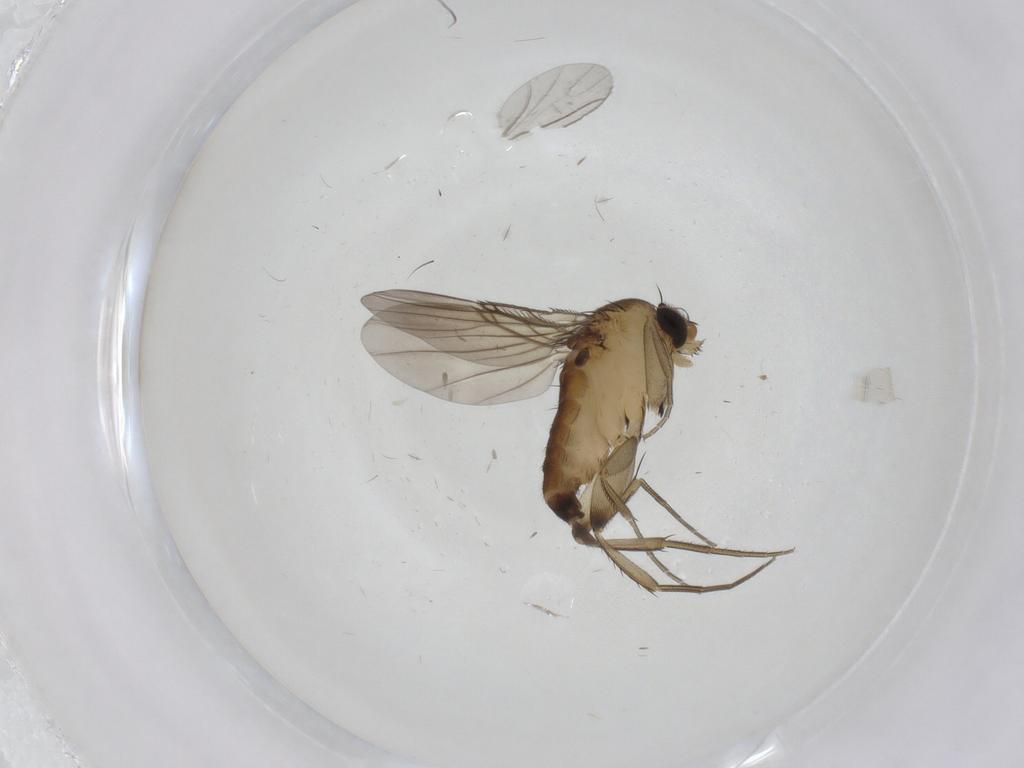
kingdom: Animalia
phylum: Arthropoda
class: Insecta
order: Diptera
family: Phoridae
